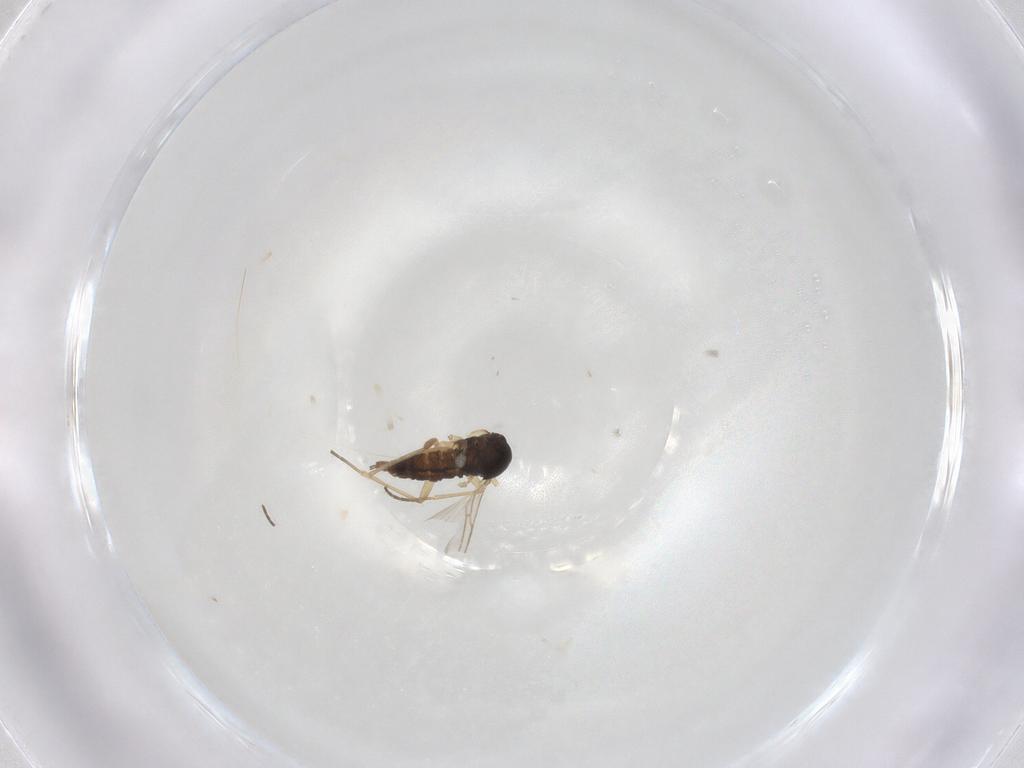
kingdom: Animalia
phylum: Arthropoda
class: Insecta
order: Diptera
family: Sciaridae
